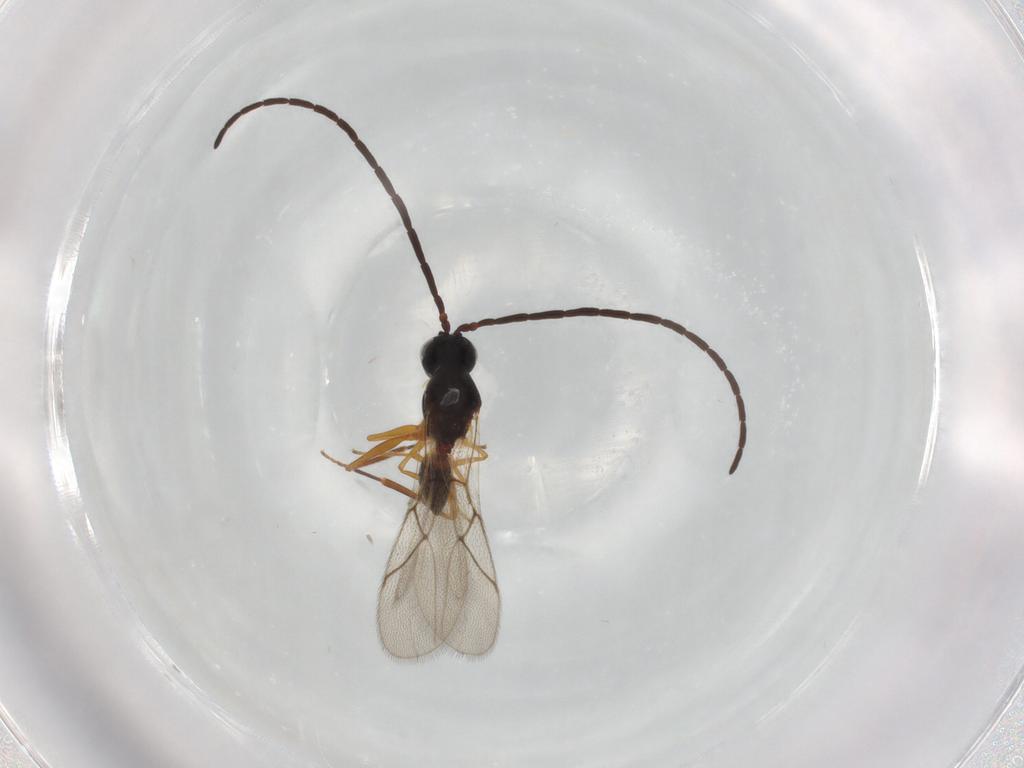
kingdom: Animalia
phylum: Arthropoda
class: Insecta
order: Hymenoptera
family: Figitidae
